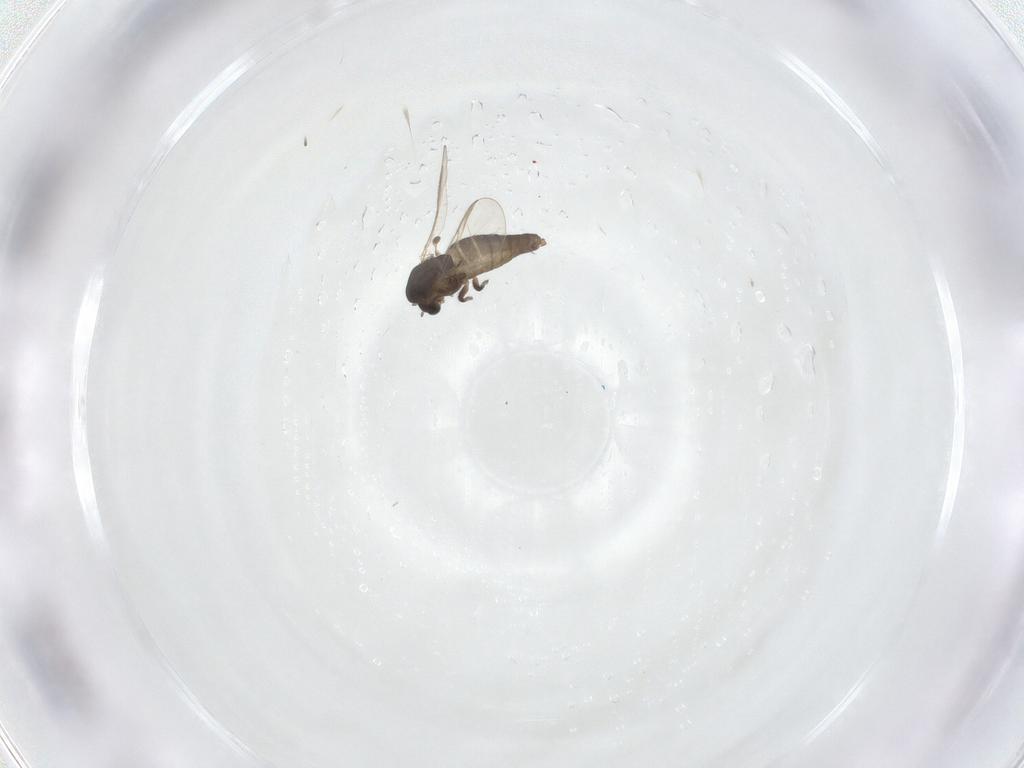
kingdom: Animalia
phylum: Arthropoda
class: Insecta
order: Diptera
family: Chironomidae
